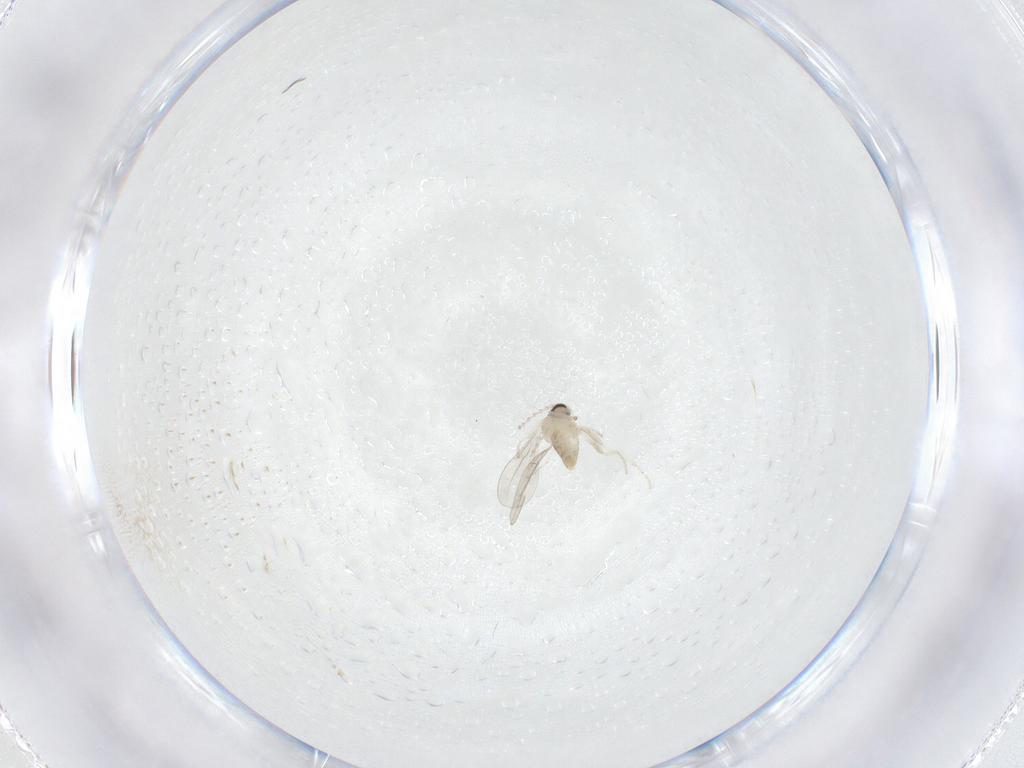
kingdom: Animalia
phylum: Arthropoda
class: Insecta
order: Diptera
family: Cecidomyiidae
